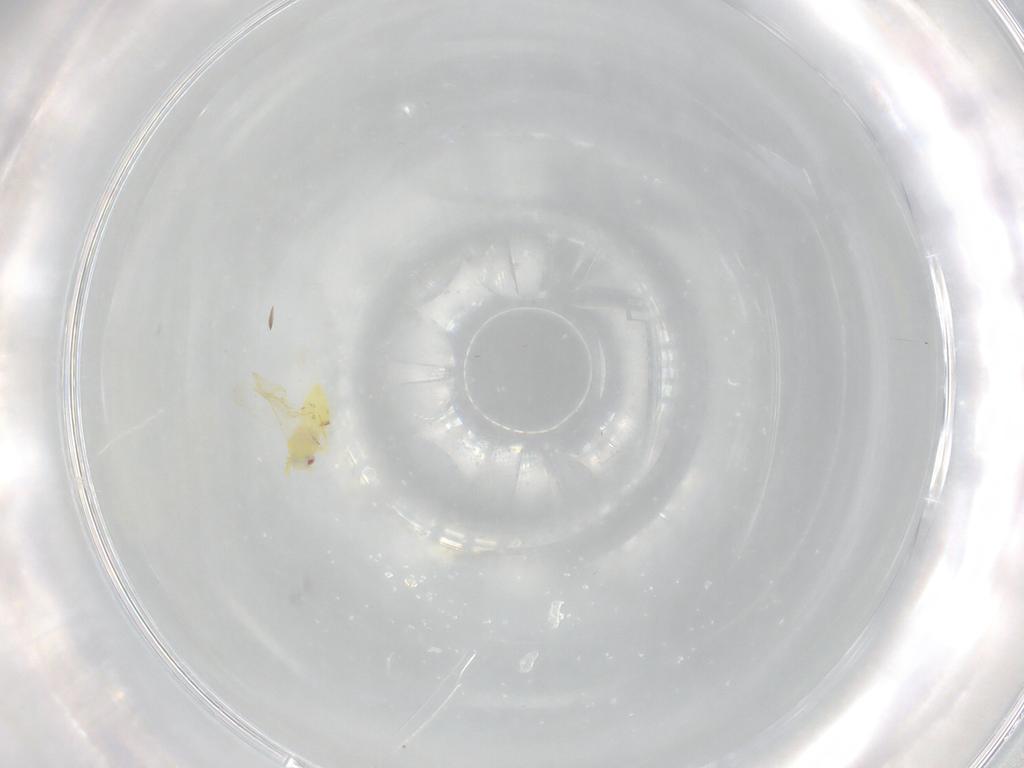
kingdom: Animalia
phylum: Arthropoda
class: Insecta
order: Hemiptera
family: Aleyrodidae
